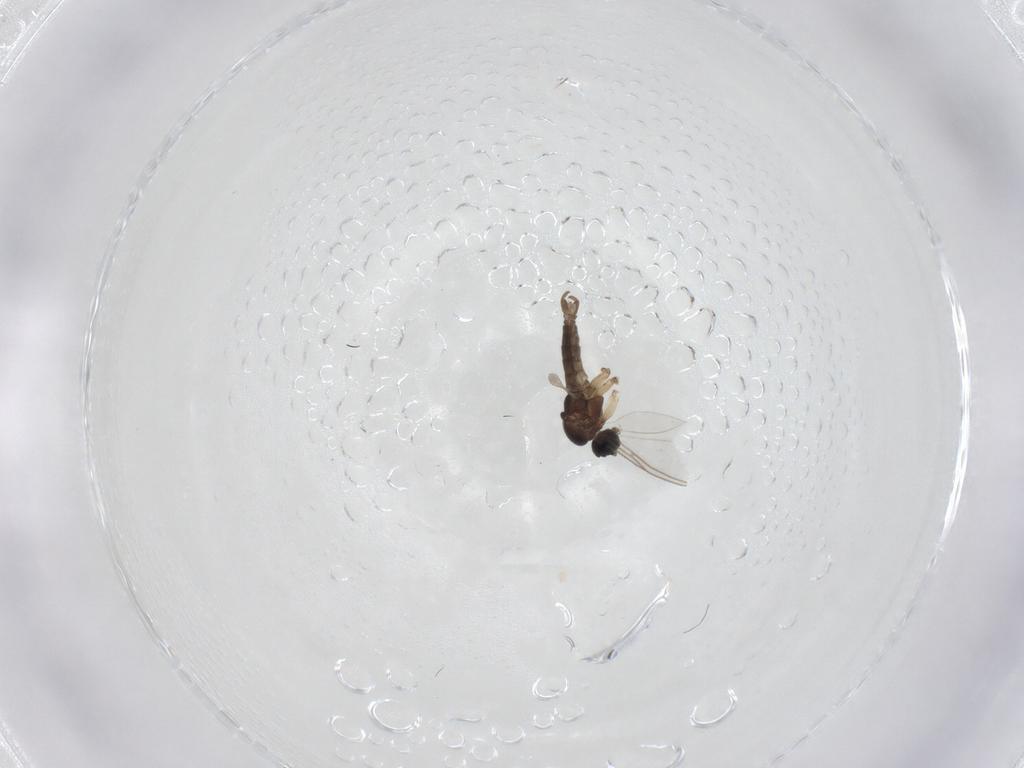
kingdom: Animalia
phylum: Arthropoda
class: Insecta
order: Diptera
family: Sciaridae
